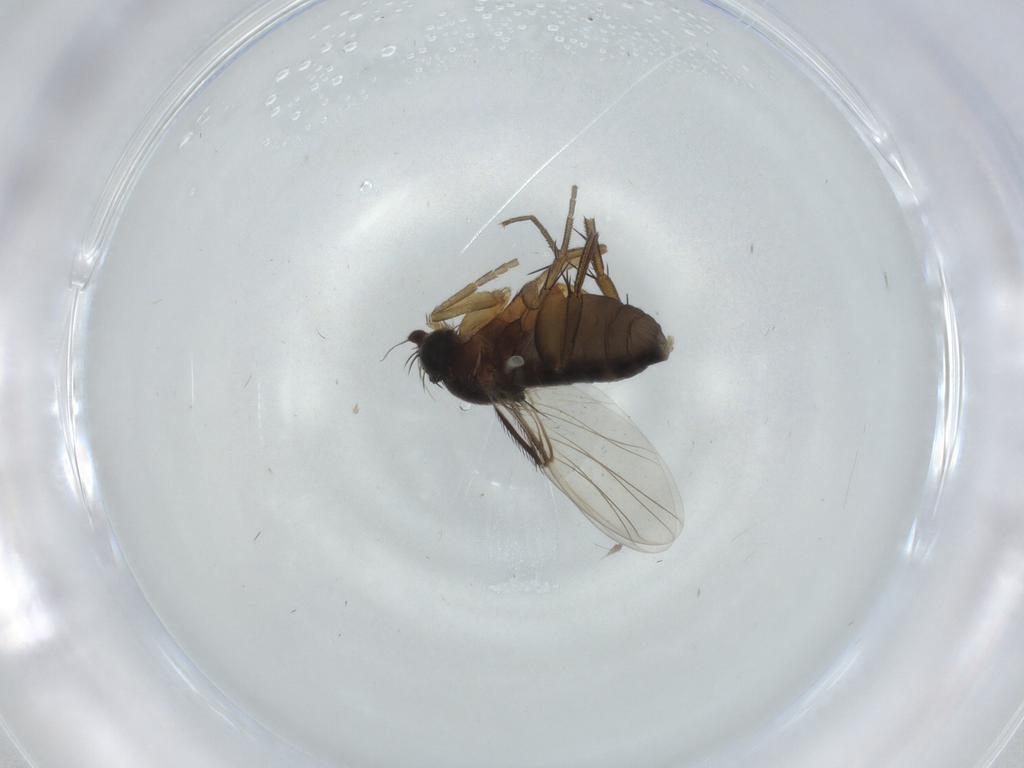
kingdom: Animalia
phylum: Arthropoda
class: Insecta
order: Diptera
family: Phoridae
